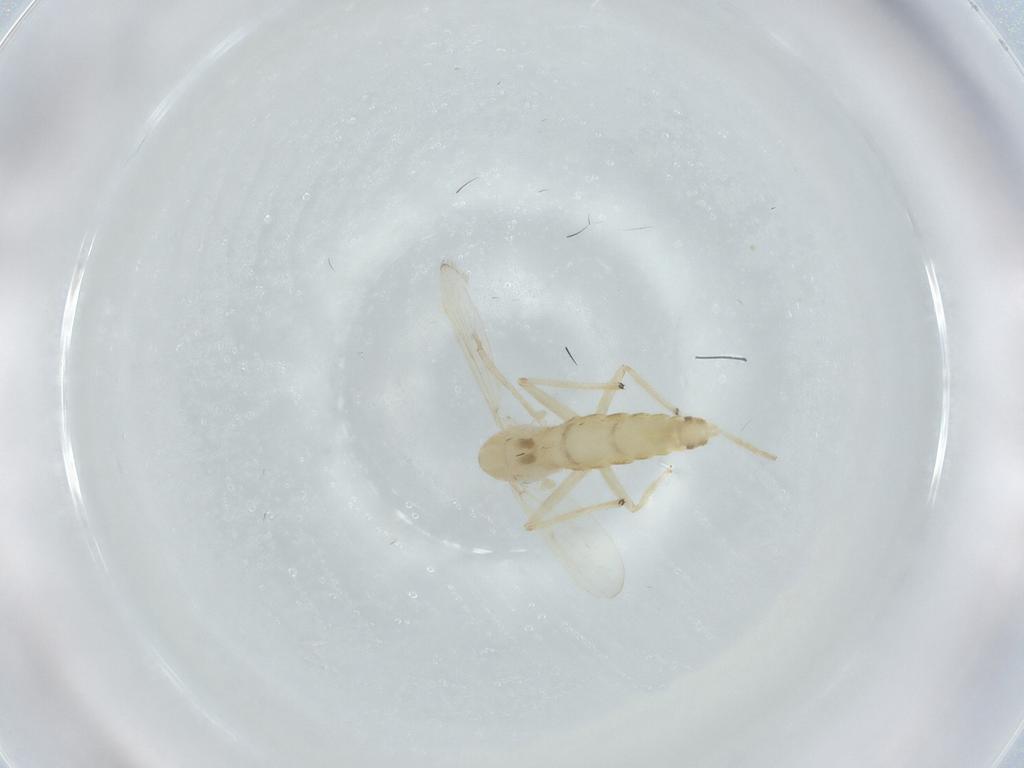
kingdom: Animalia
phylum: Arthropoda
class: Insecta
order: Diptera
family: Chironomidae
